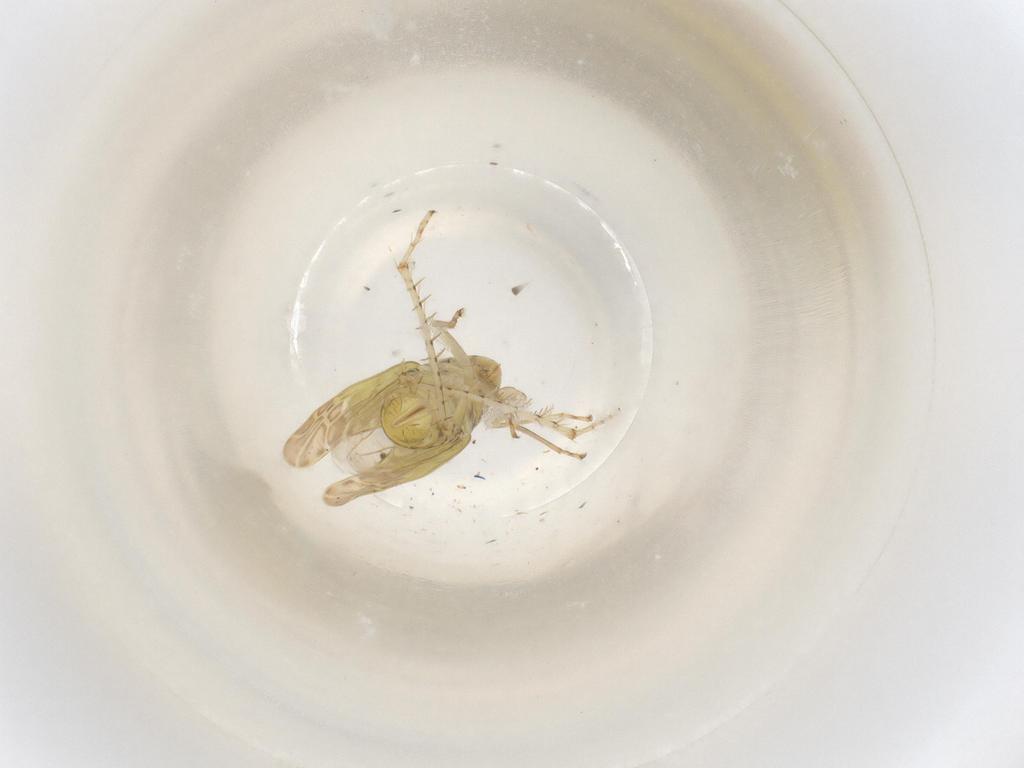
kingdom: Animalia
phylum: Arthropoda
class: Insecta
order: Hemiptera
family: Cicadellidae
